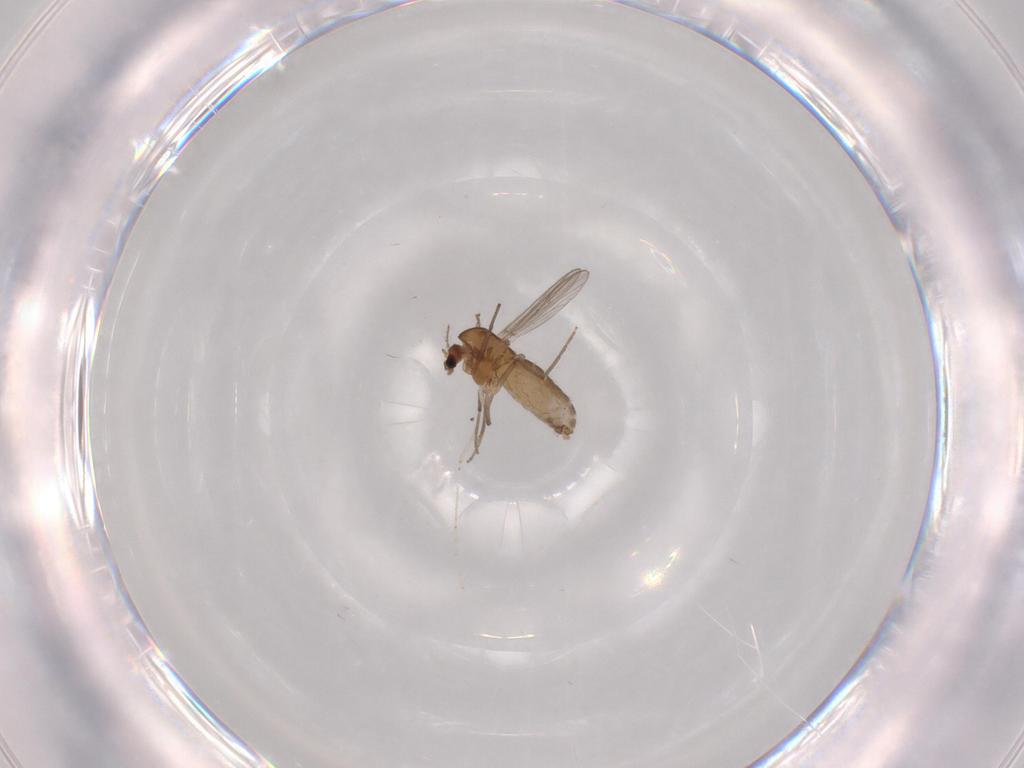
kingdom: Animalia
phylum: Arthropoda
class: Insecta
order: Diptera
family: Chironomidae
